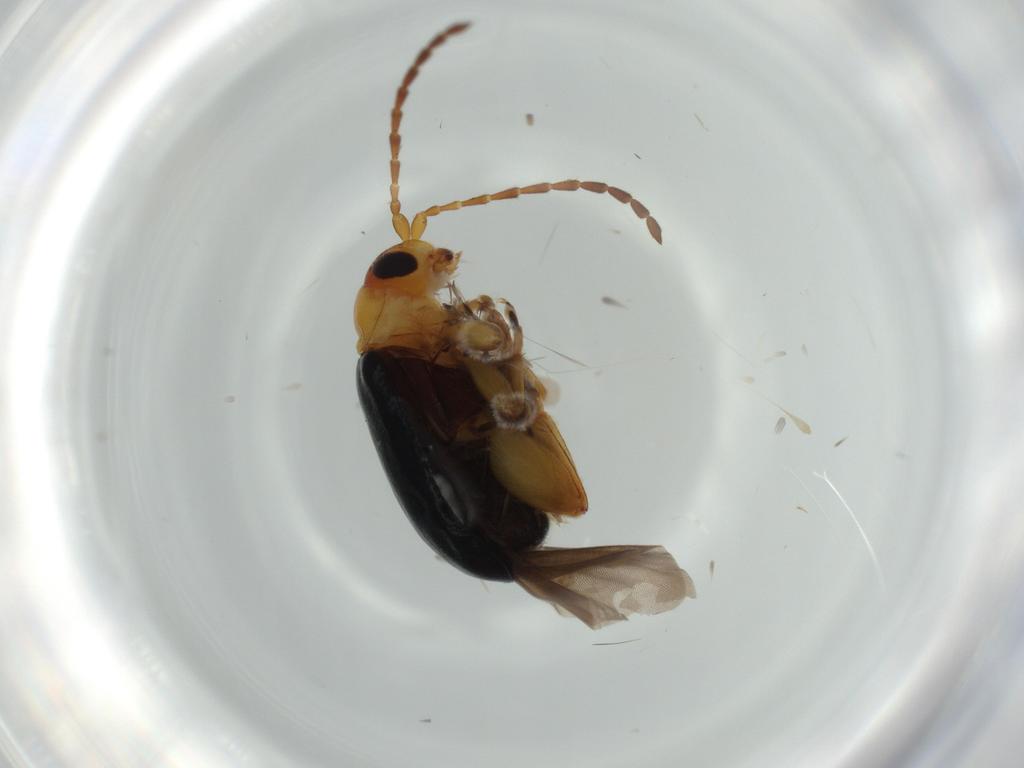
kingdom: Animalia
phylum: Arthropoda
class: Insecta
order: Coleoptera
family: Chrysomelidae
